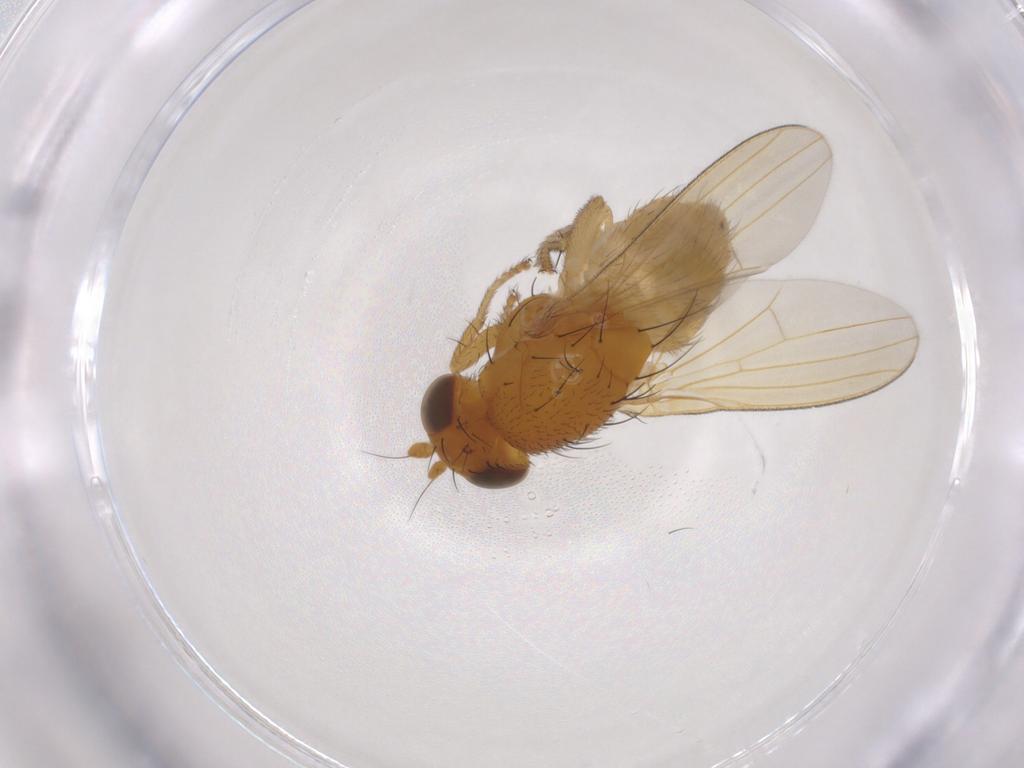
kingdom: Animalia
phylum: Arthropoda
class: Insecta
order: Diptera
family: Lauxaniidae
